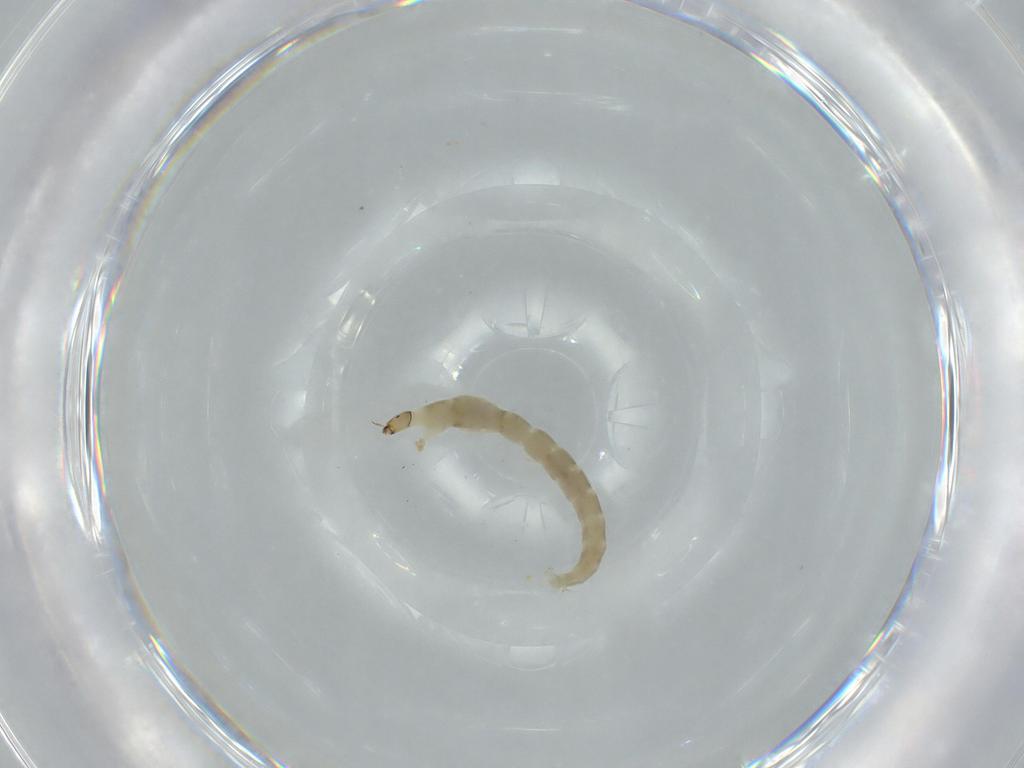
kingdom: Animalia
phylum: Arthropoda
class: Insecta
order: Diptera
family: Chironomidae
